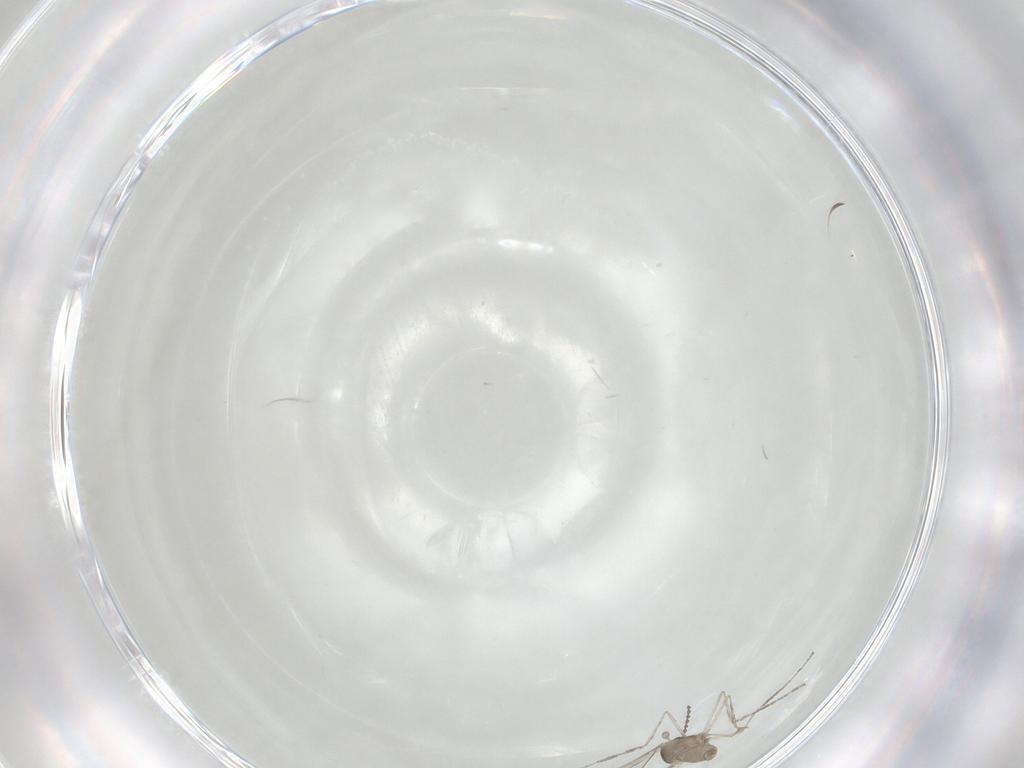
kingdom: Animalia
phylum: Arthropoda
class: Insecta
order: Diptera
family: Cecidomyiidae
